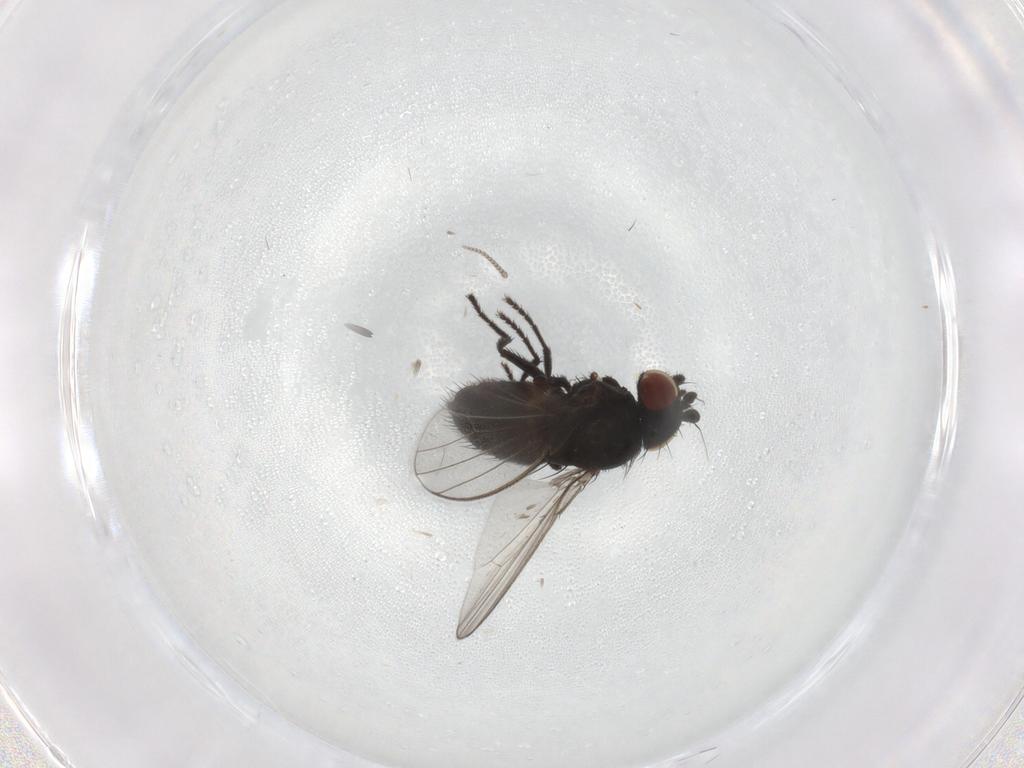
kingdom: Animalia
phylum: Arthropoda
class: Insecta
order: Diptera
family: Milichiidae
